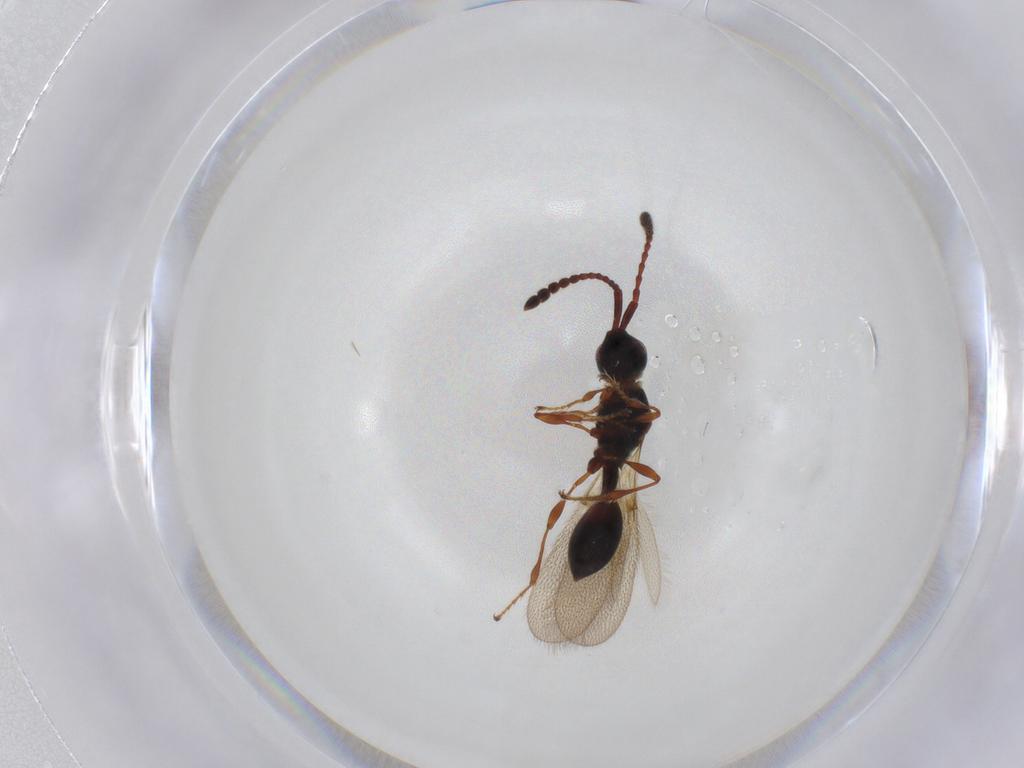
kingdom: Animalia
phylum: Arthropoda
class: Insecta
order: Hymenoptera
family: Diapriidae
